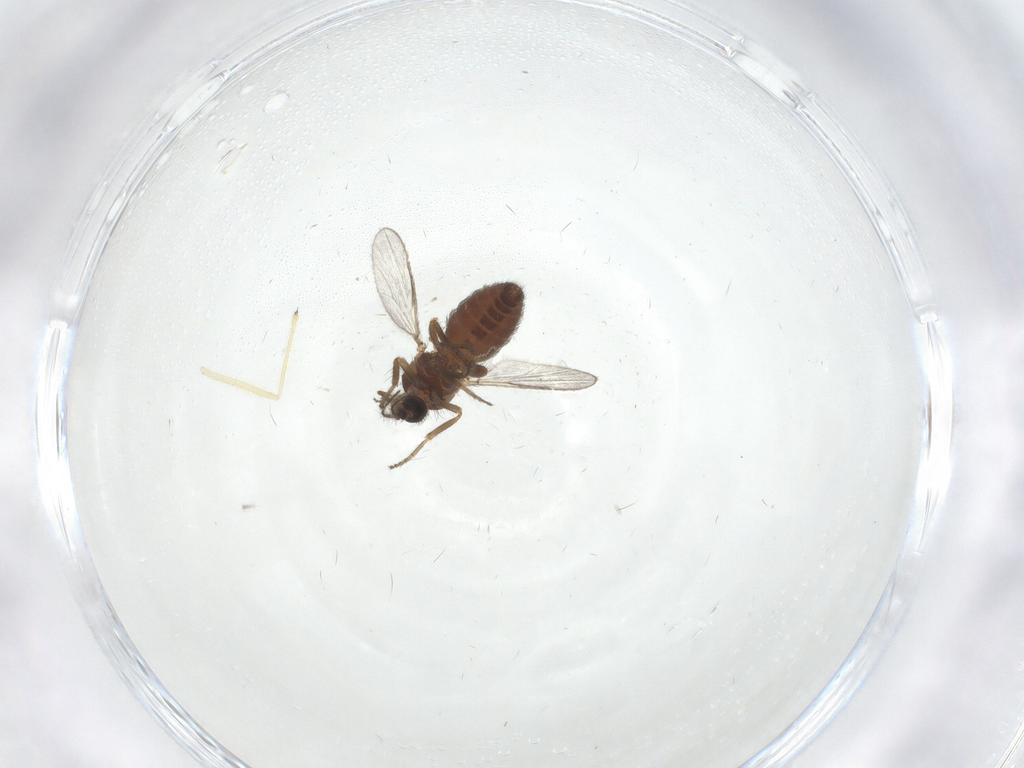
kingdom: Animalia
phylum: Arthropoda
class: Insecta
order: Diptera
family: Ceratopogonidae
